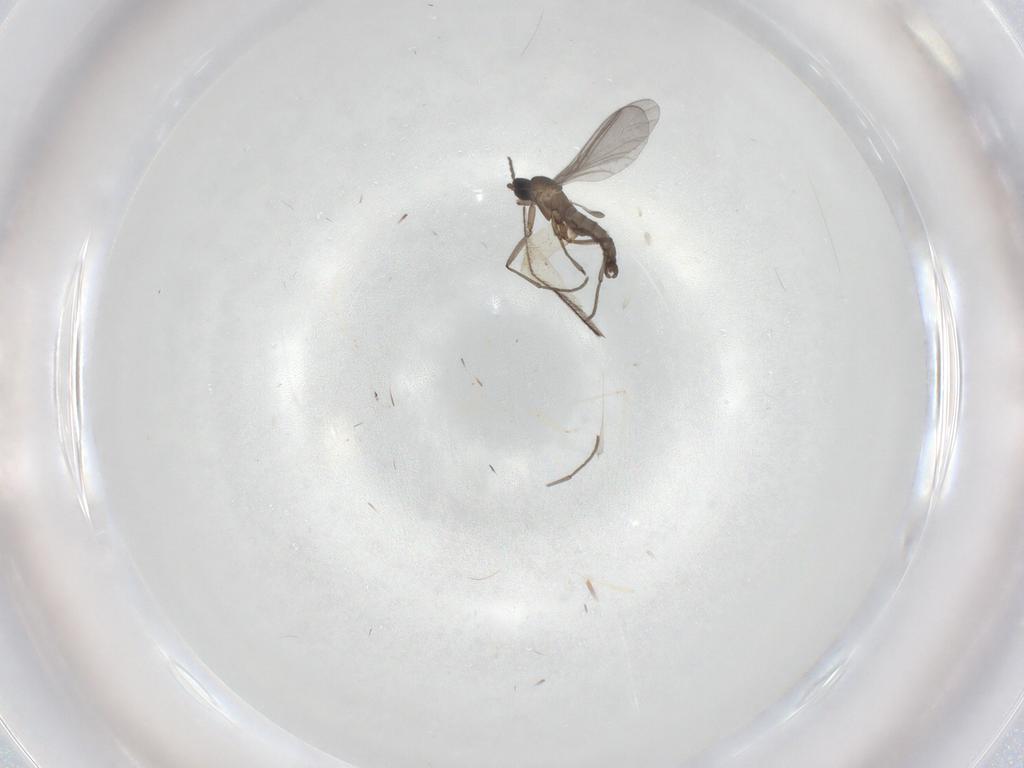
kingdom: Animalia
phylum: Arthropoda
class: Insecta
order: Diptera
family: Sciaridae
